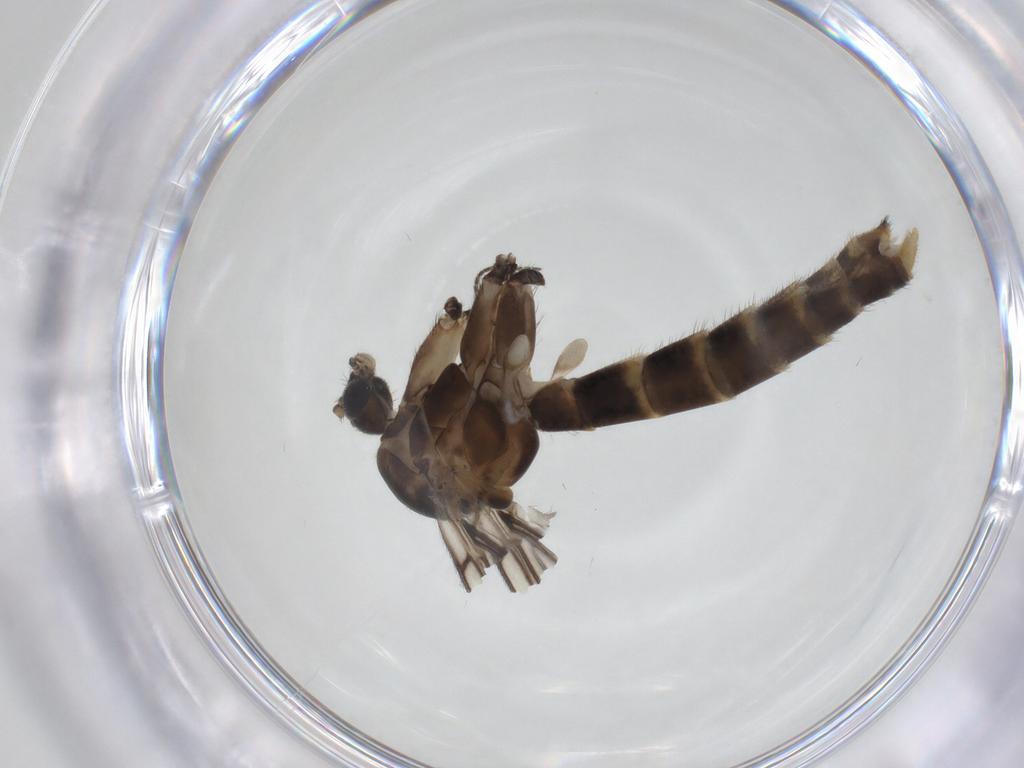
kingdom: Animalia
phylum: Arthropoda
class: Insecta
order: Diptera
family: Mycetophilidae
